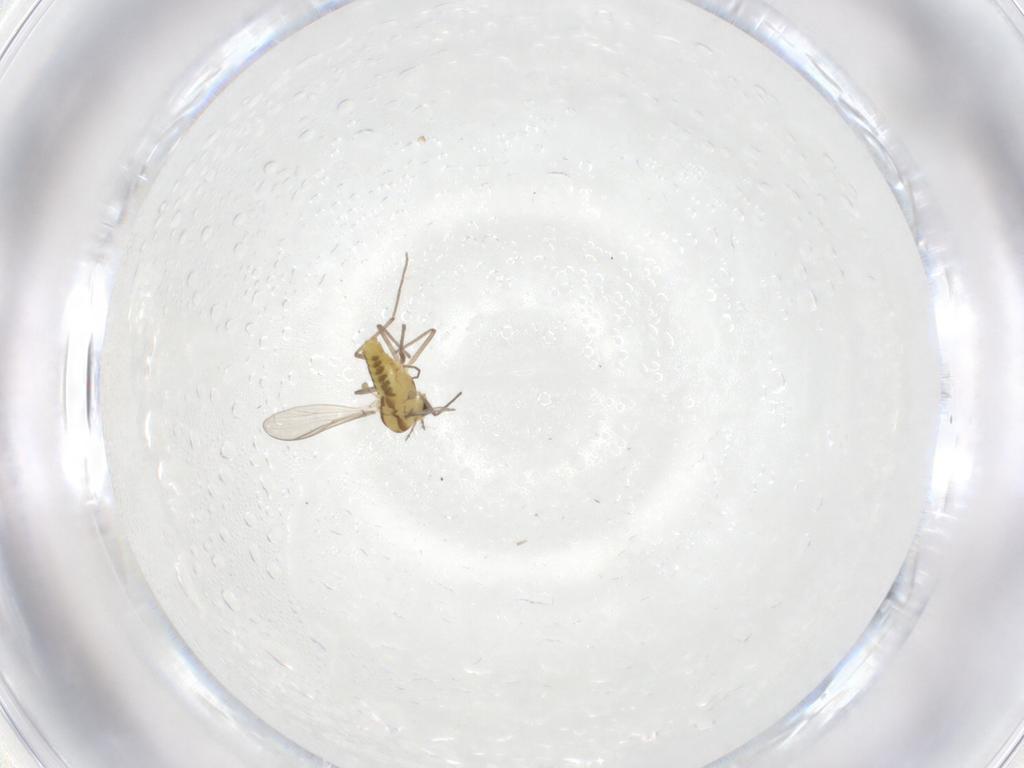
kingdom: Animalia
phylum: Arthropoda
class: Insecta
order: Diptera
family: Chironomidae
